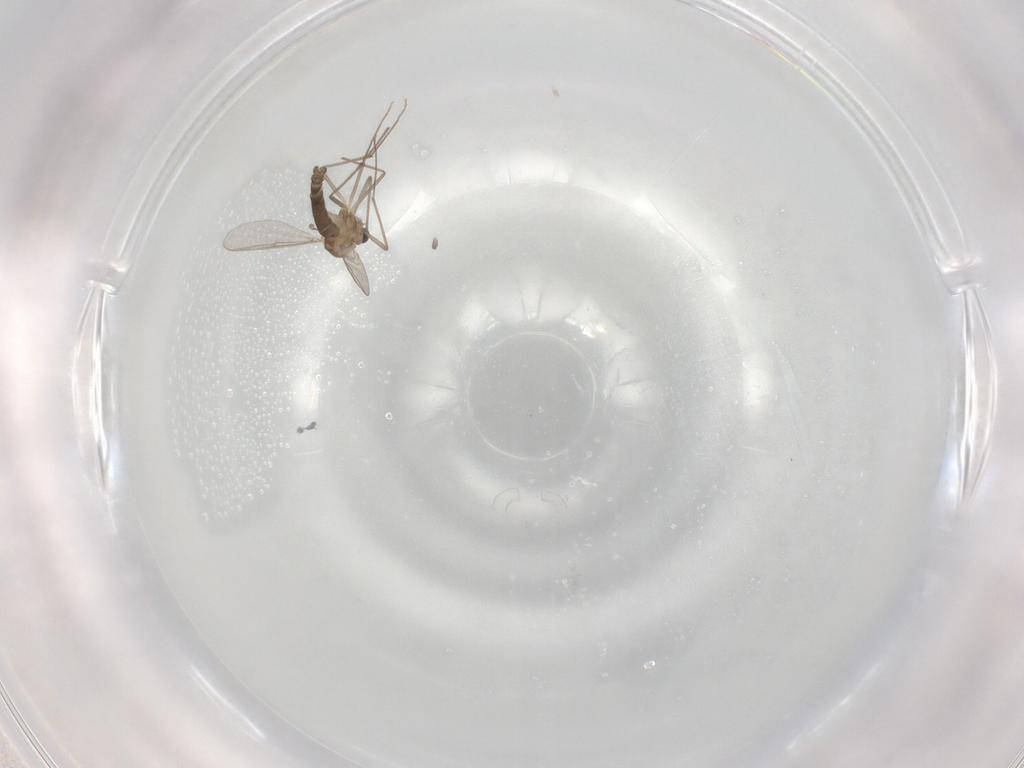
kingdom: Animalia
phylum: Arthropoda
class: Insecta
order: Diptera
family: Chironomidae
